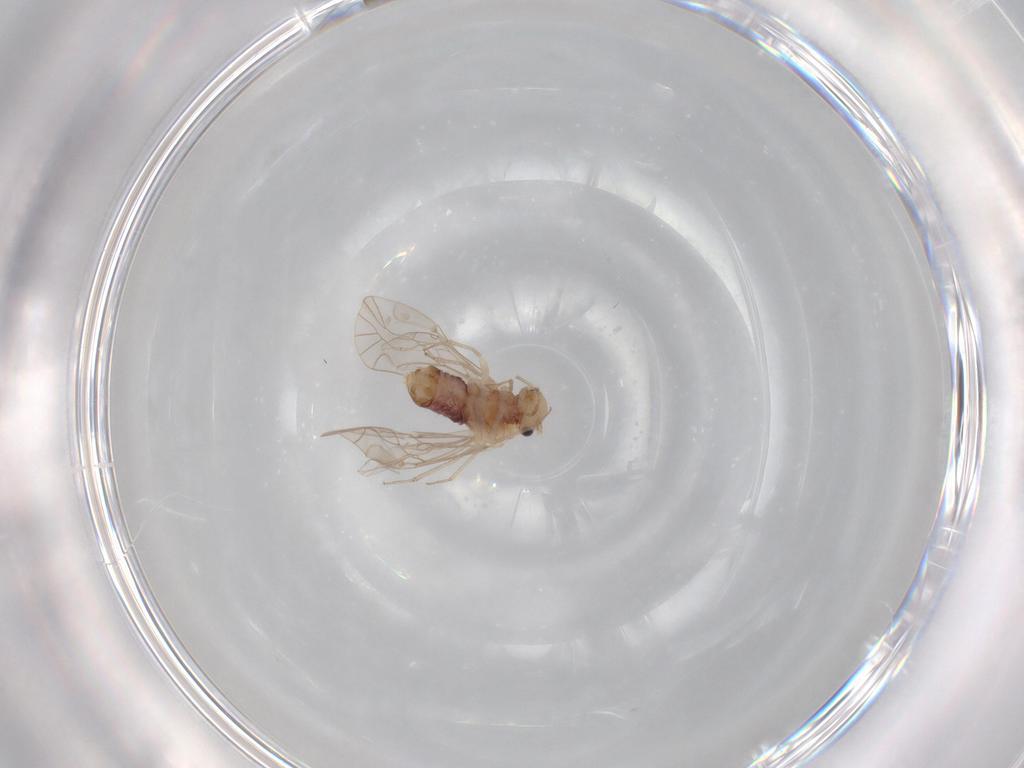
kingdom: Animalia
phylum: Arthropoda
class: Insecta
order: Psocodea
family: Lachesillidae
